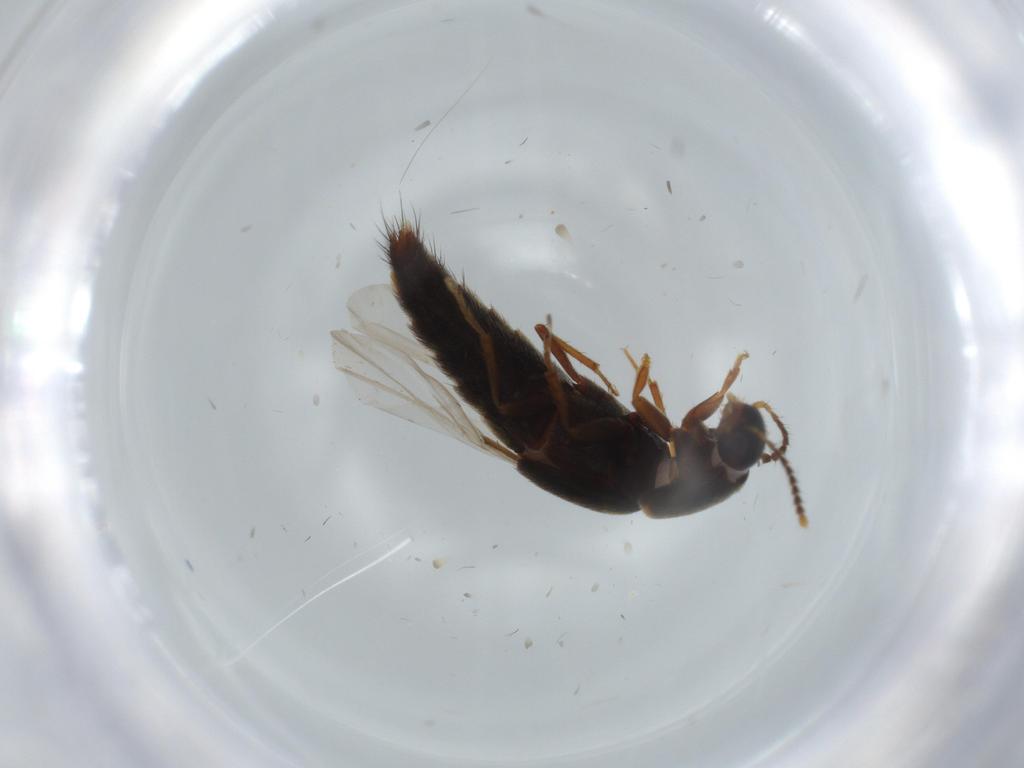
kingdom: Animalia
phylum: Arthropoda
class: Insecta
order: Coleoptera
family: Staphylinidae
